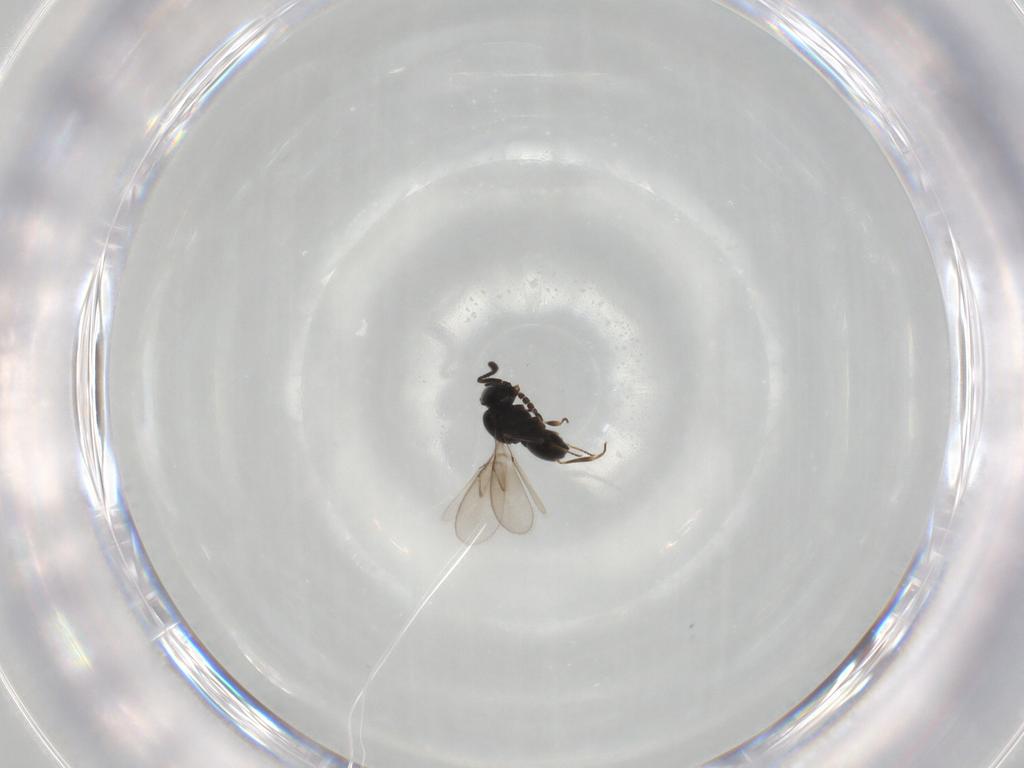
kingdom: Animalia
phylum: Arthropoda
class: Insecta
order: Hymenoptera
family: Scelionidae
